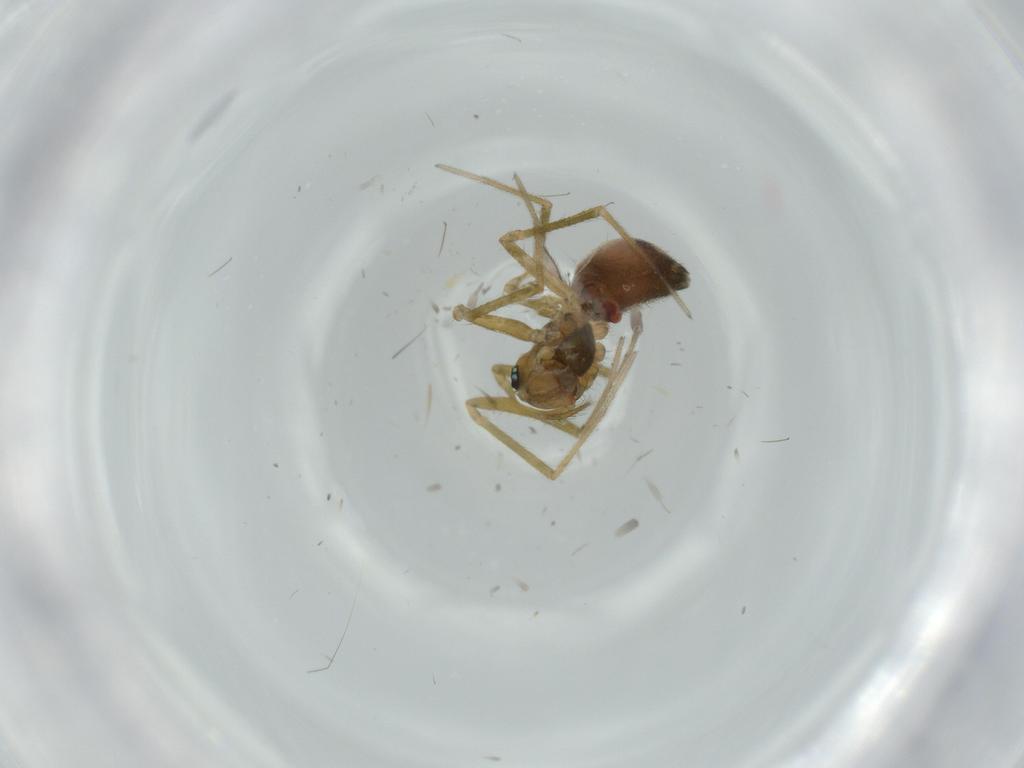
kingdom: Animalia
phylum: Arthropoda
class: Arachnida
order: Araneae
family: Linyphiidae
